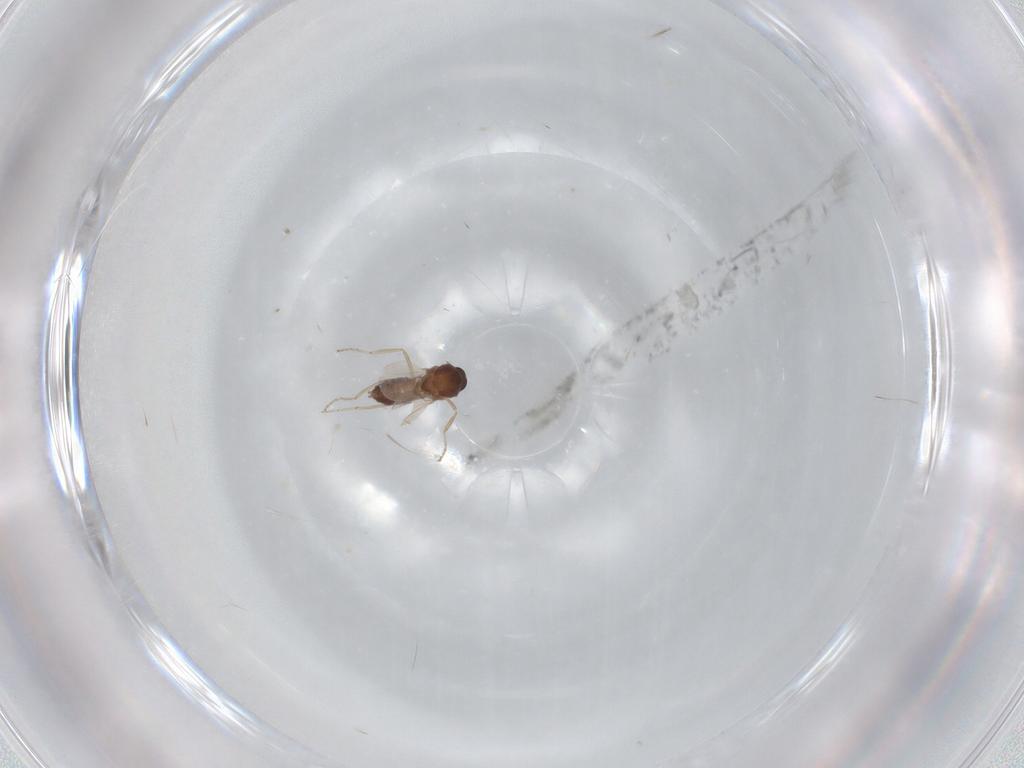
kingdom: Animalia
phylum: Arthropoda
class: Insecta
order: Diptera
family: Ceratopogonidae
